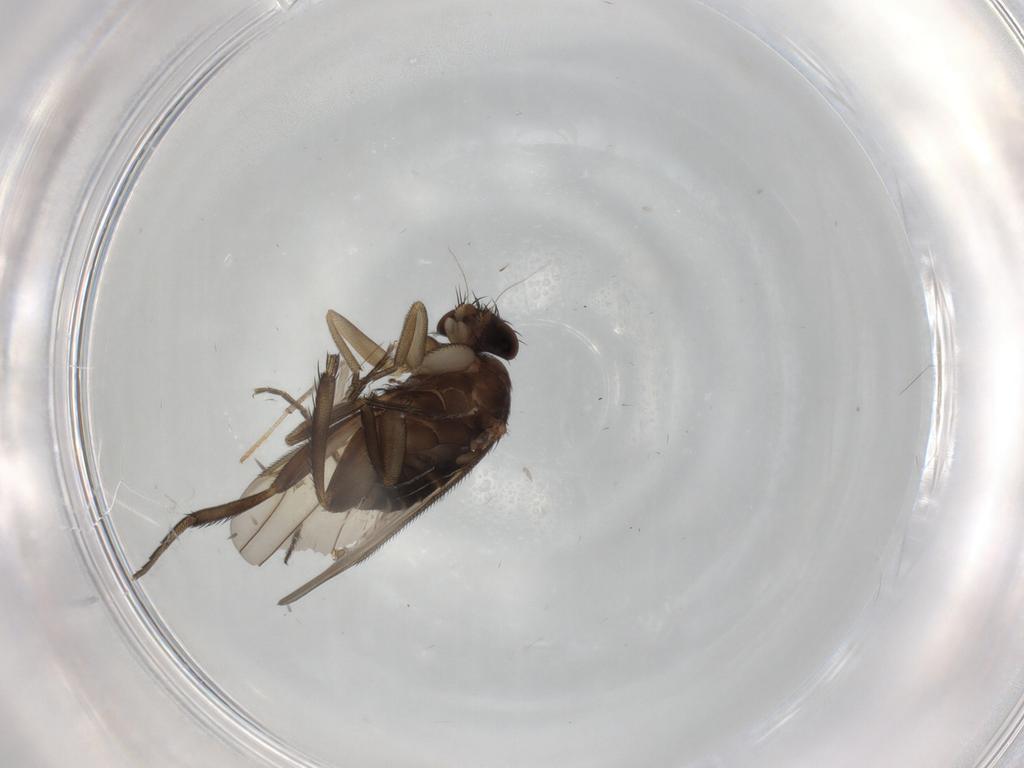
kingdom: Animalia
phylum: Arthropoda
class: Insecta
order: Diptera
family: Phoridae
